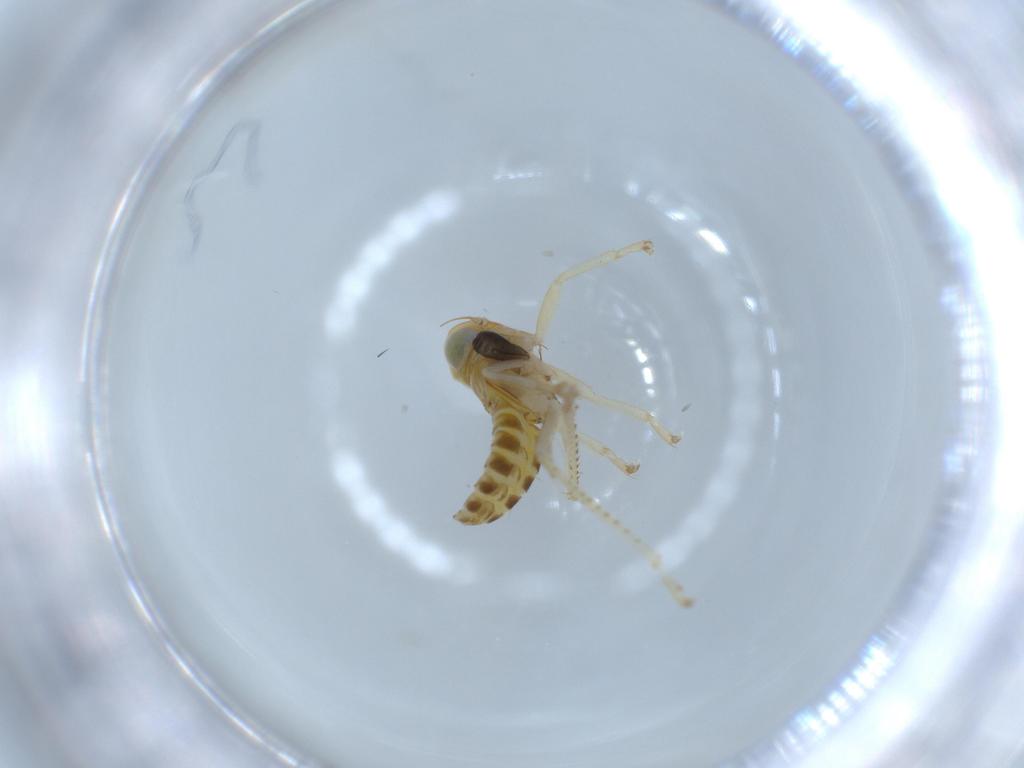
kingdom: Animalia
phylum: Arthropoda
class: Insecta
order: Hemiptera
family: Cicadellidae
